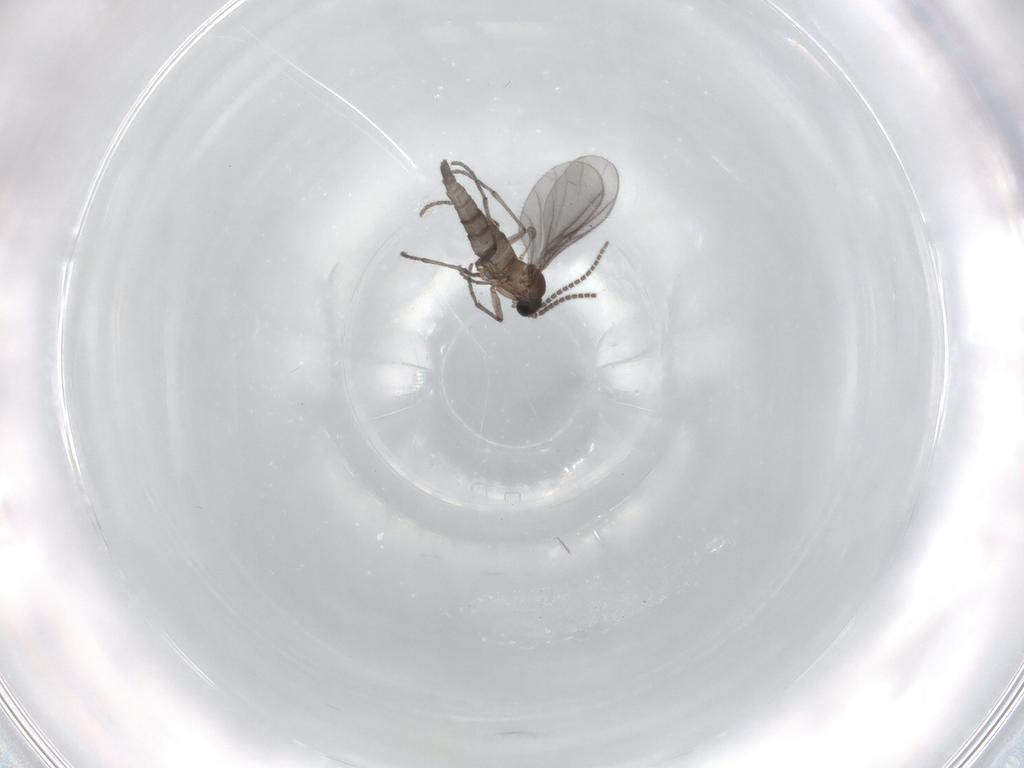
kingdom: Animalia
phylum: Arthropoda
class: Insecta
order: Diptera
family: Sciaridae
